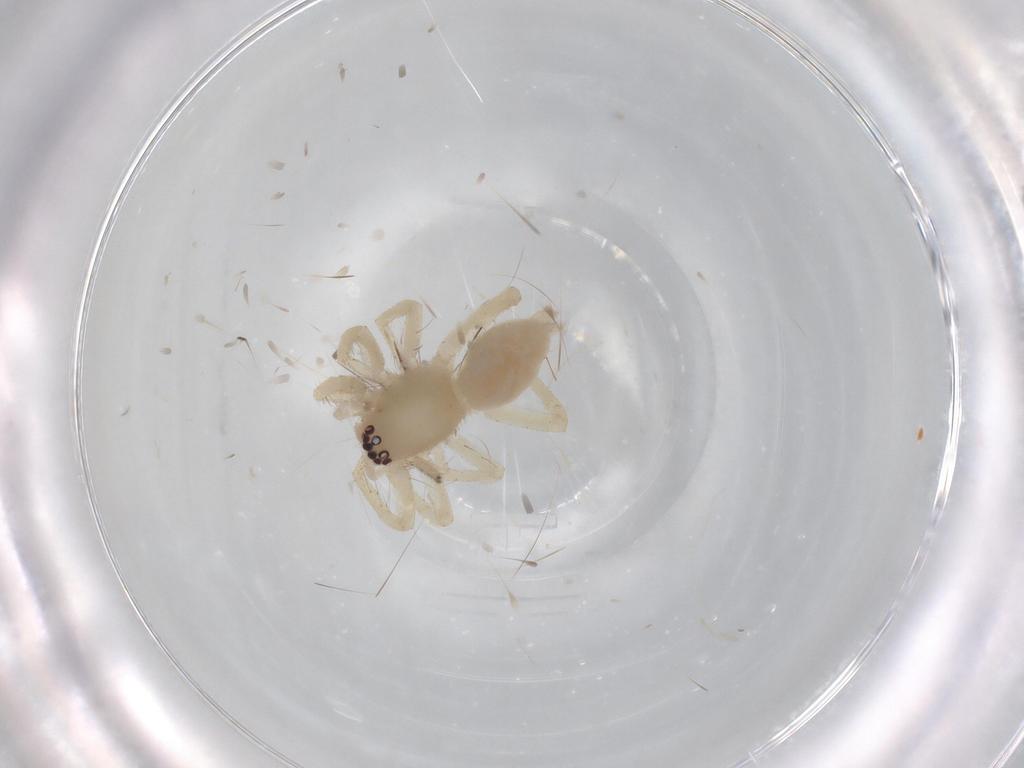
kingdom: Animalia
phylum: Arthropoda
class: Arachnida
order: Araneae
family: Clubionidae
